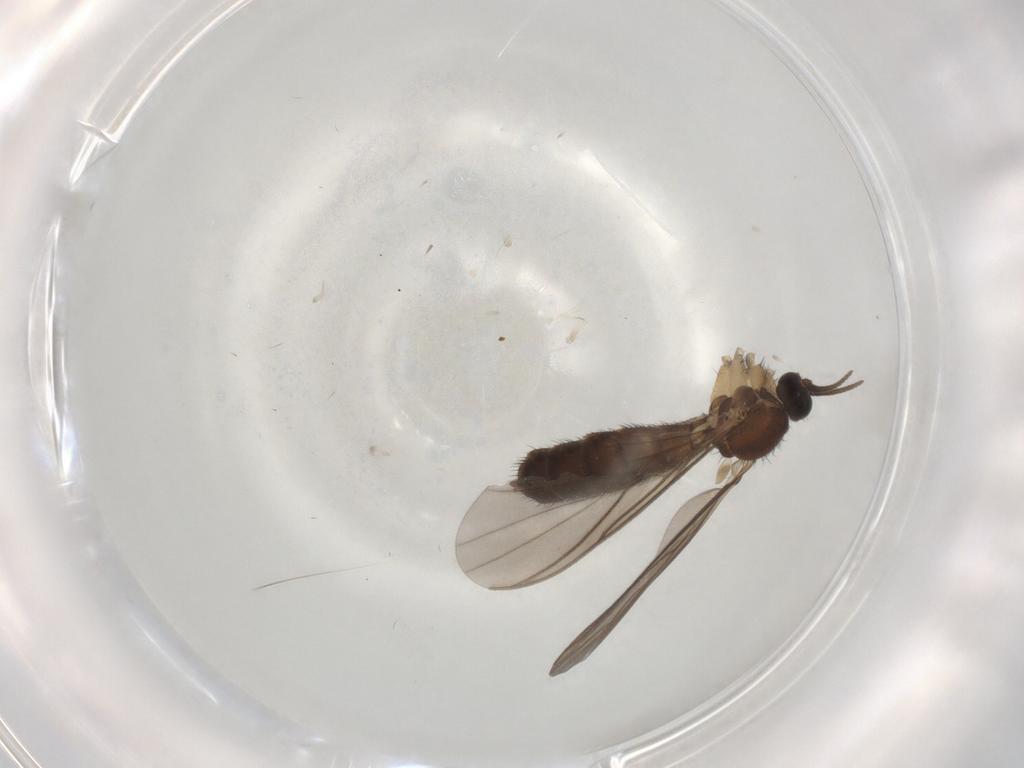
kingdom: Animalia
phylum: Arthropoda
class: Insecta
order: Diptera
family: Keroplatidae
